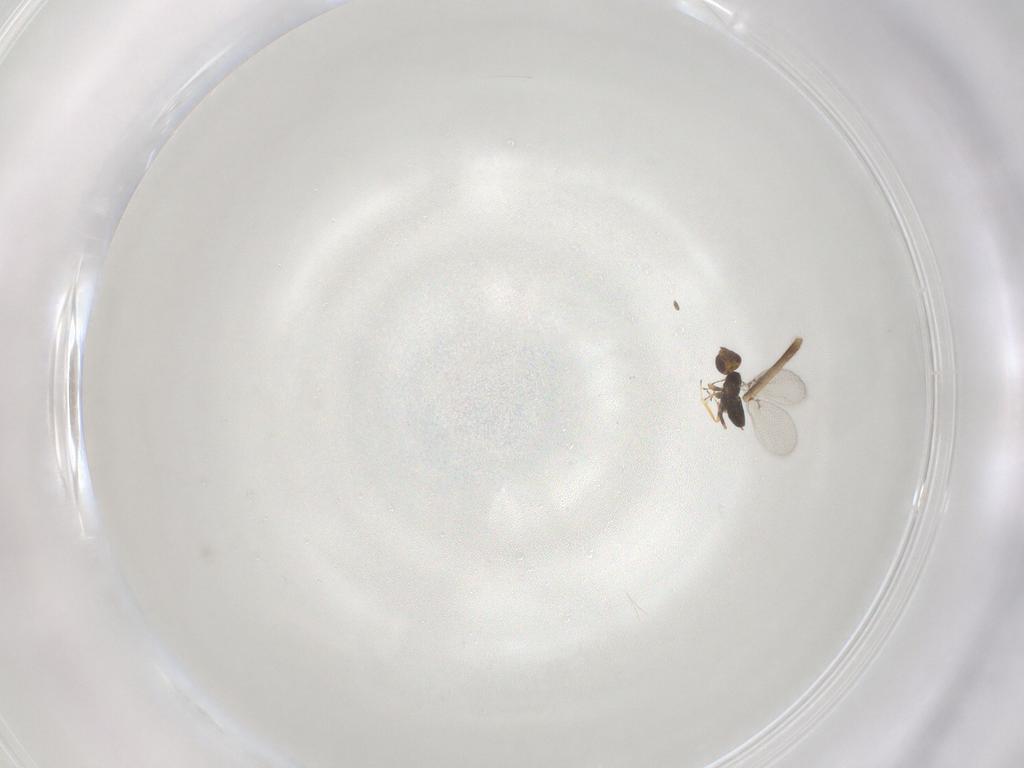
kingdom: Animalia
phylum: Arthropoda
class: Insecta
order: Hymenoptera
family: Trichogrammatidae
